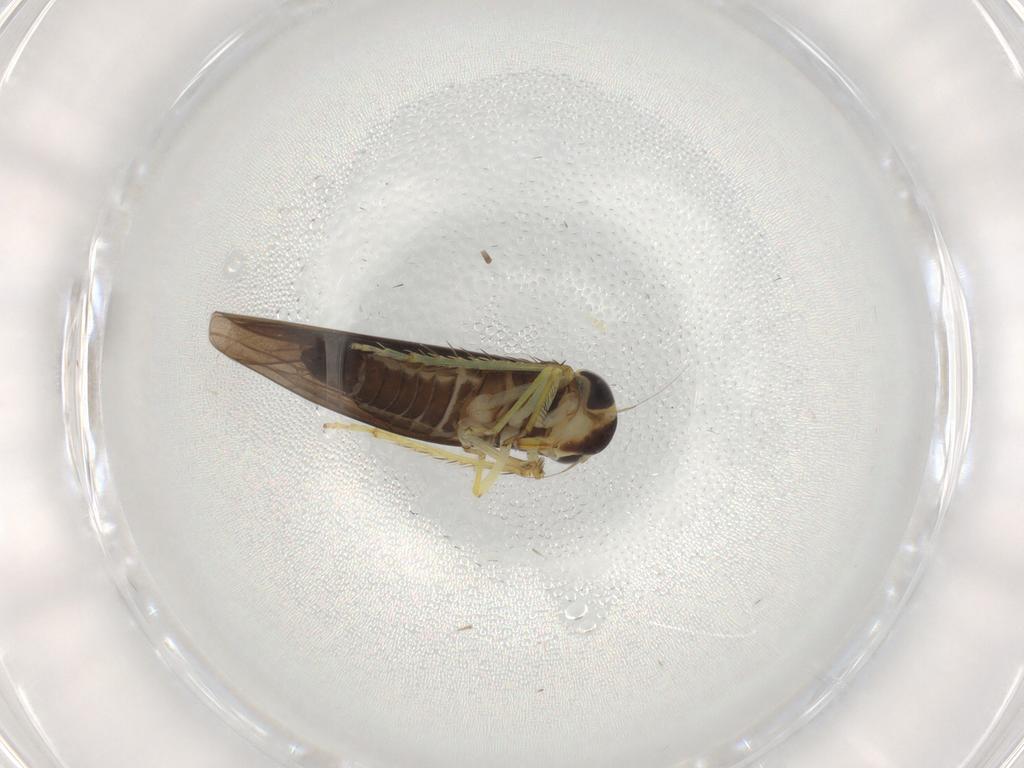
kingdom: Animalia
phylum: Arthropoda
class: Insecta
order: Hemiptera
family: Cicadellidae
